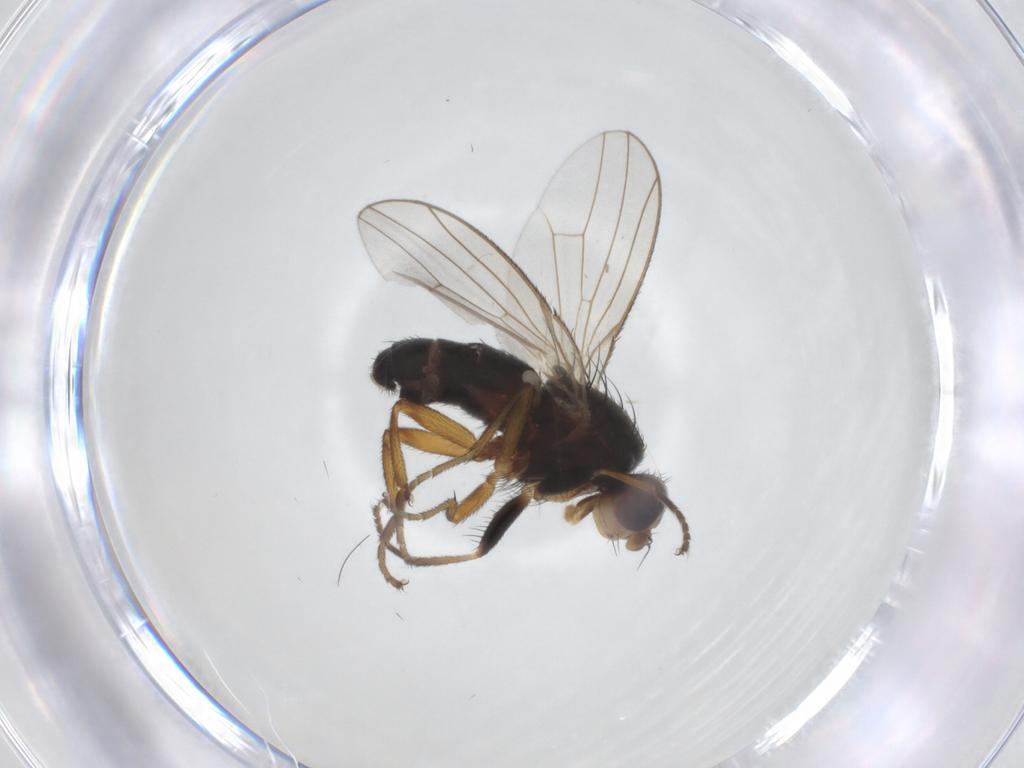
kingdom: Animalia
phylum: Arthropoda
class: Insecta
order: Diptera
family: Heleomyzidae
